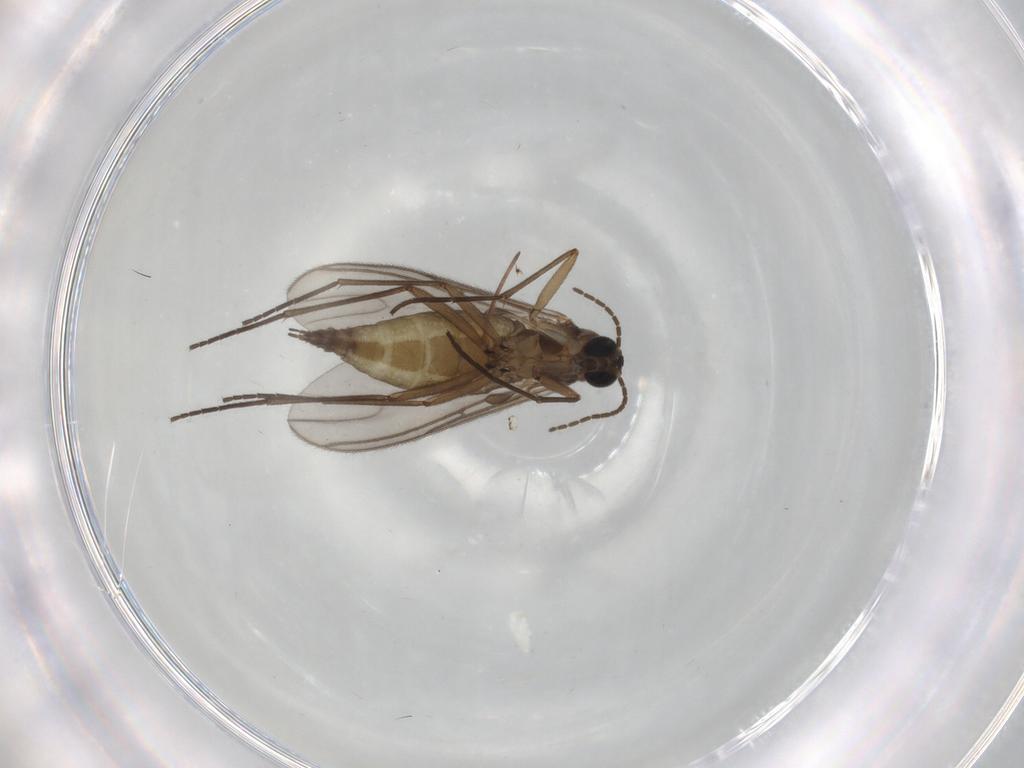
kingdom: Animalia
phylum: Arthropoda
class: Insecta
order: Diptera
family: Sciaridae
